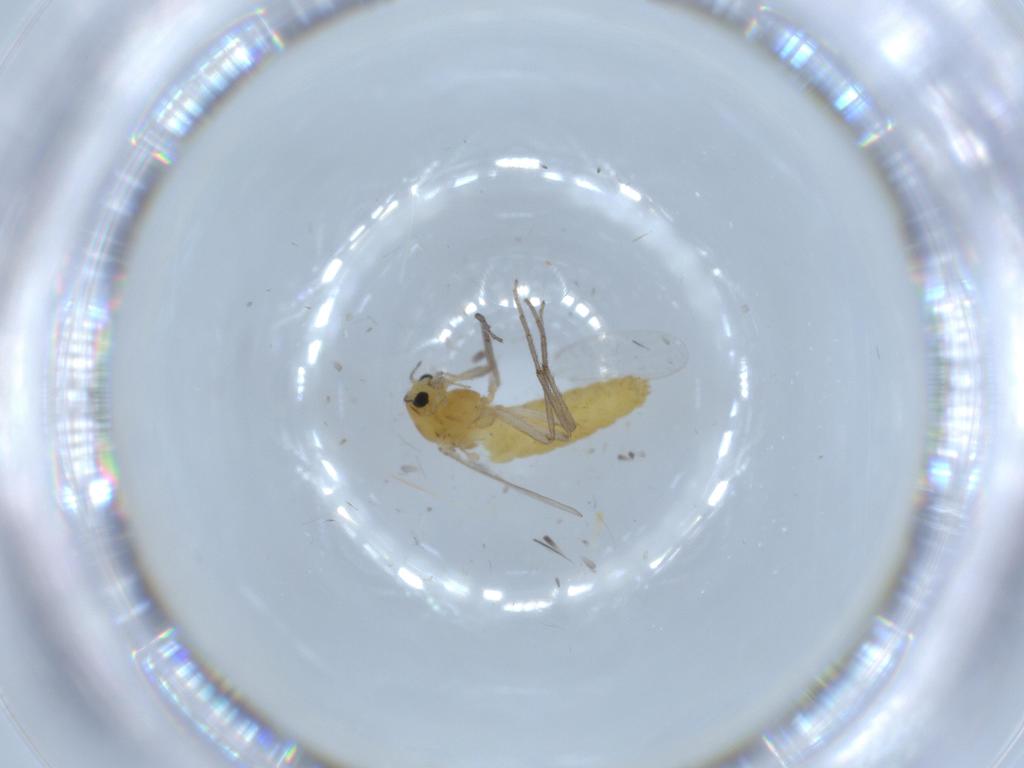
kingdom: Animalia
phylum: Arthropoda
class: Insecta
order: Diptera
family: Chironomidae
